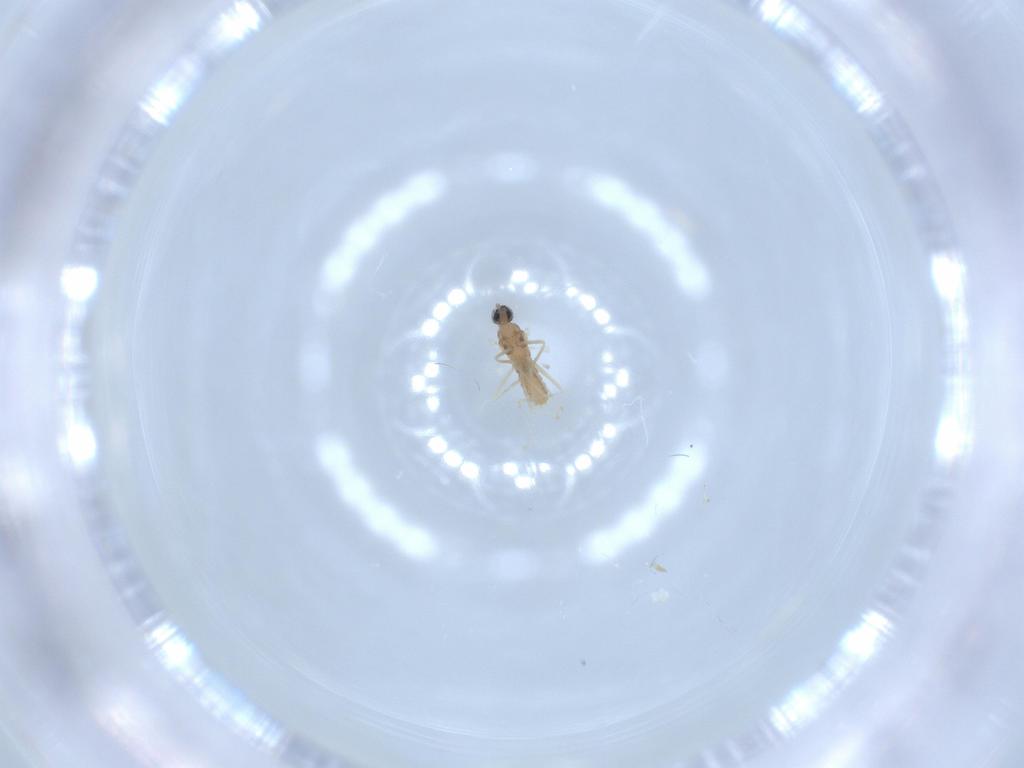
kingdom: Animalia
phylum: Arthropoda
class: Insecta
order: Diptera
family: Cecidomyiidae
